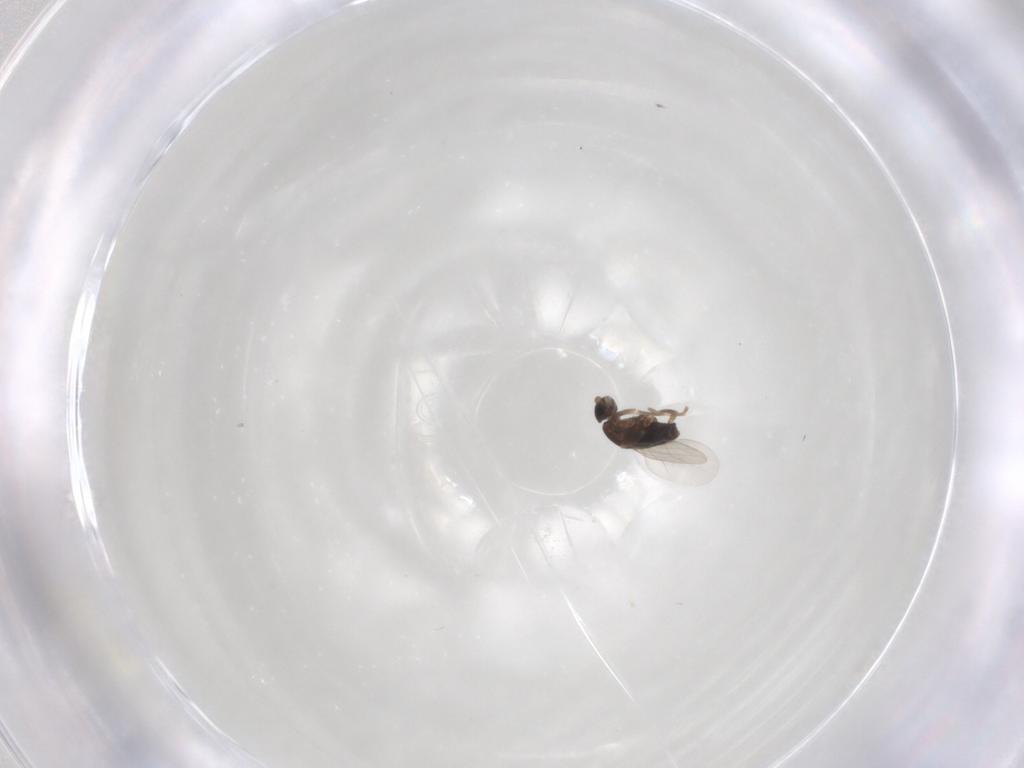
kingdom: Animalia
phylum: Arthropoda
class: Insecta
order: Diptera
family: Dolichopodidae
